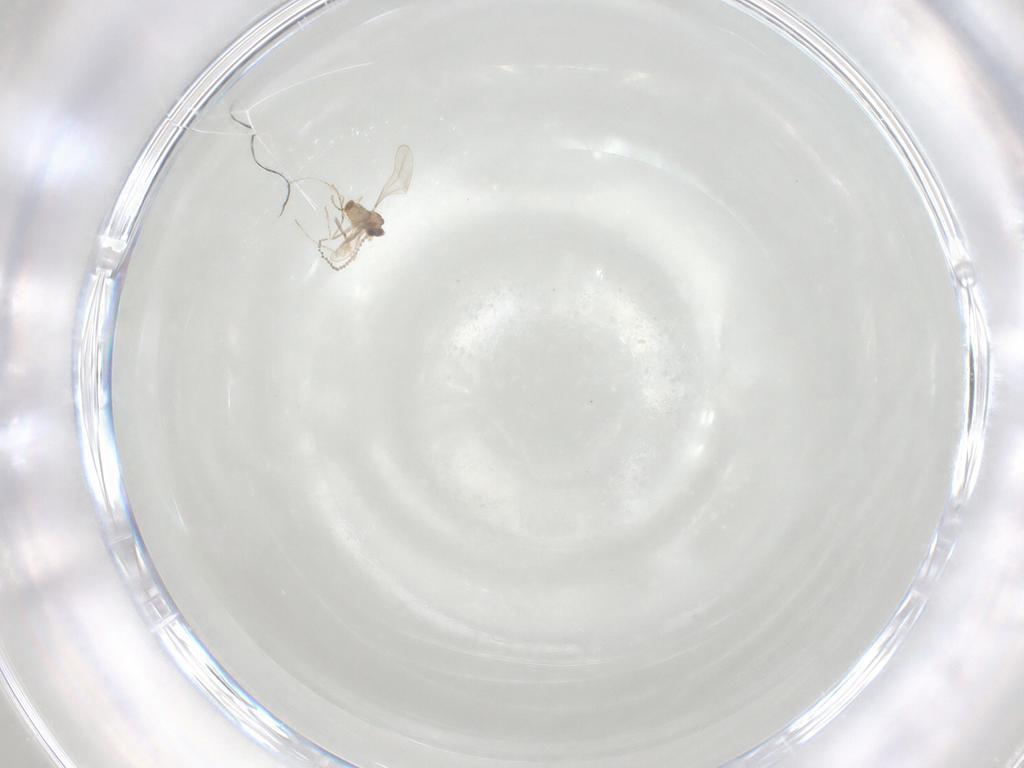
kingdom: Animalia
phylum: Arthropoda
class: Insecta
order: Diptera
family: Cecidomyiidae
